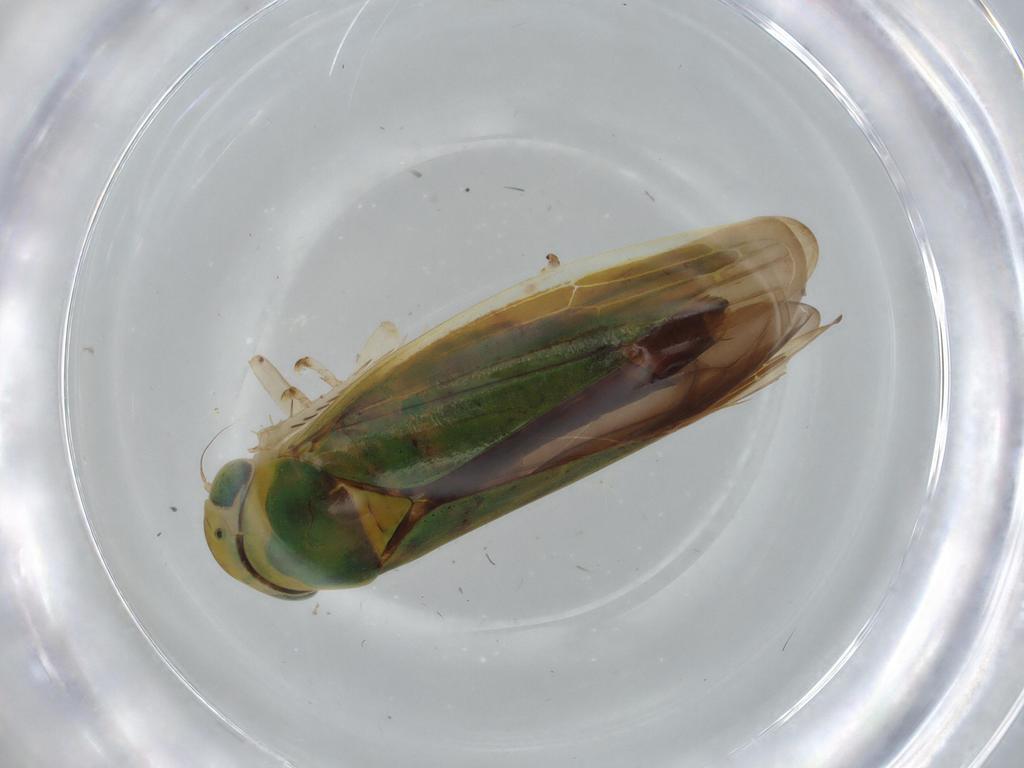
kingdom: Animalia
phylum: Arthropoda
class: Insecta
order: Hemiptera
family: Cicadellidae
